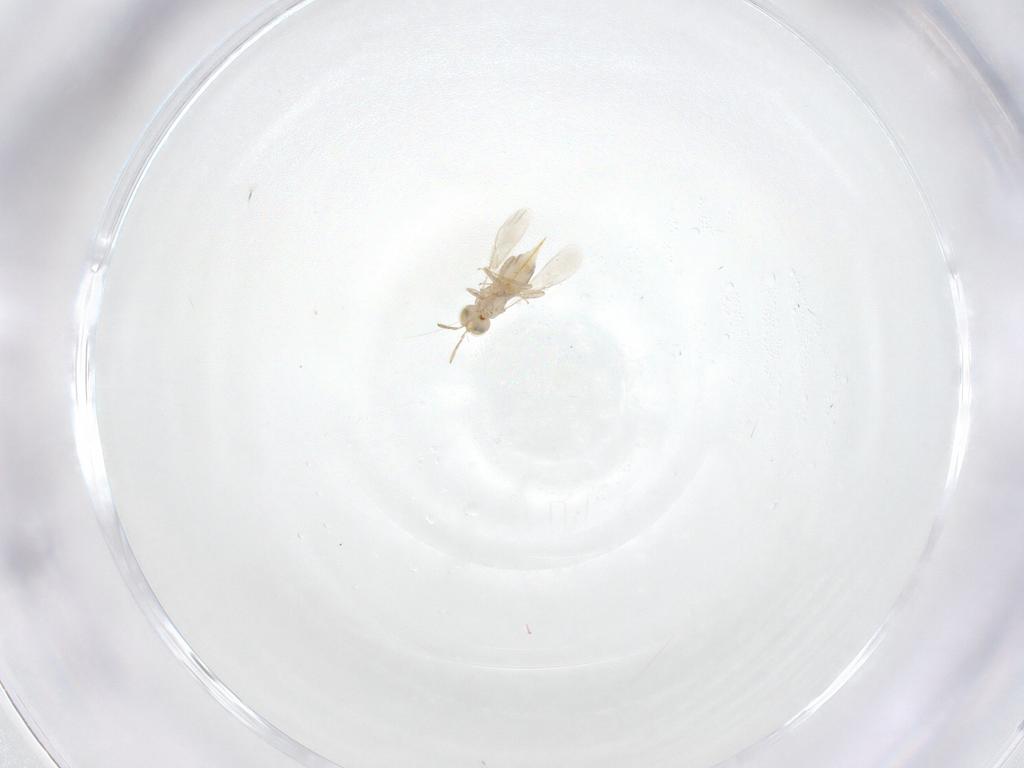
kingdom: Animalia
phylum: Arthropoda
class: Insecta
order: Hymenoptera
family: Aphelinidae
